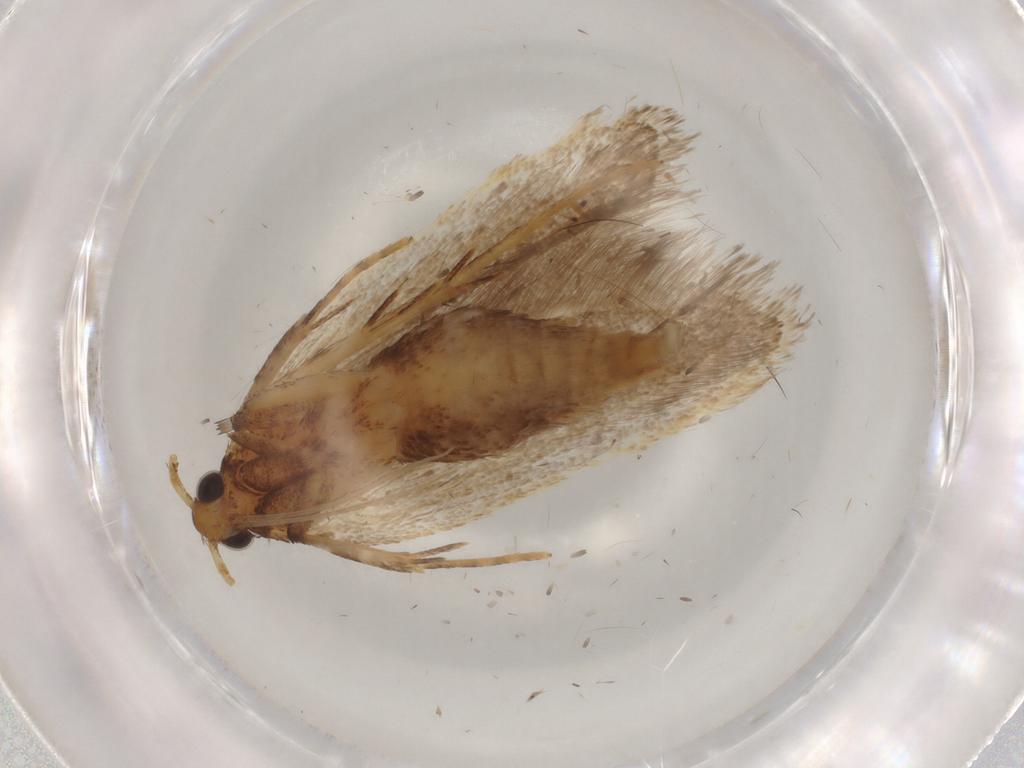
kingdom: Animalia
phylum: Arthropoda
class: Insecta
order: Lepidoptera
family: Lecithoceridae
